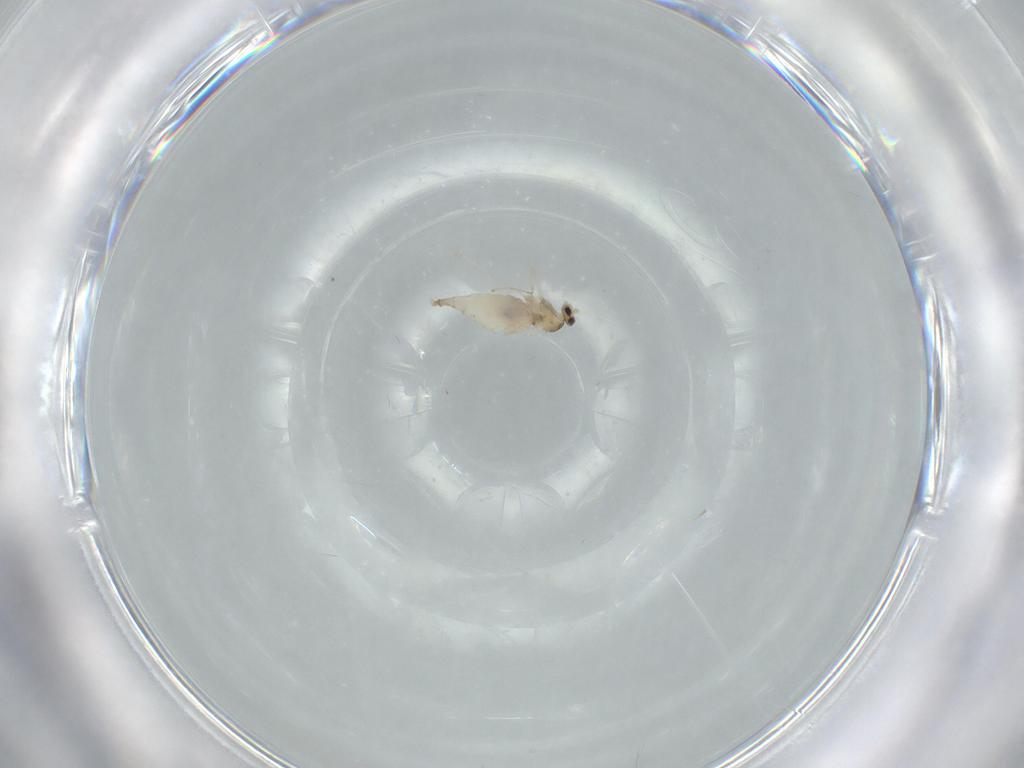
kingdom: Animalia
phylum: Arthropoda
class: Insecta
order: Diptera
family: Cecidomyiidae
